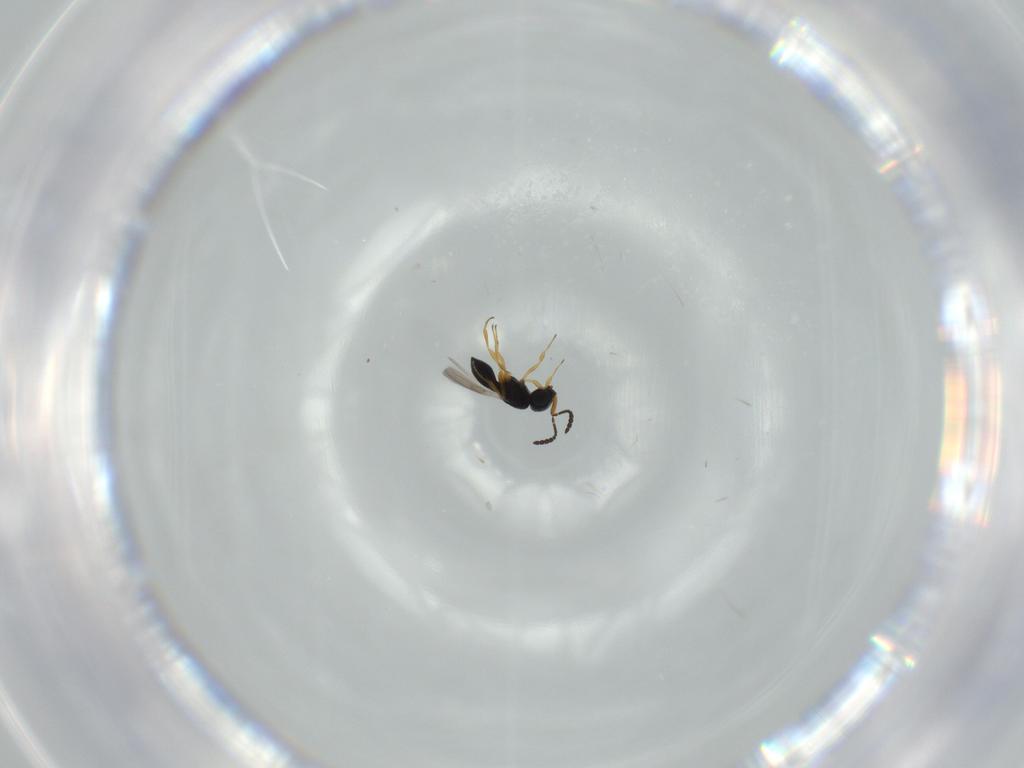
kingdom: Animalia
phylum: Arthropoda
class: Insecta
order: Hymenoptera
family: Scelionidae
